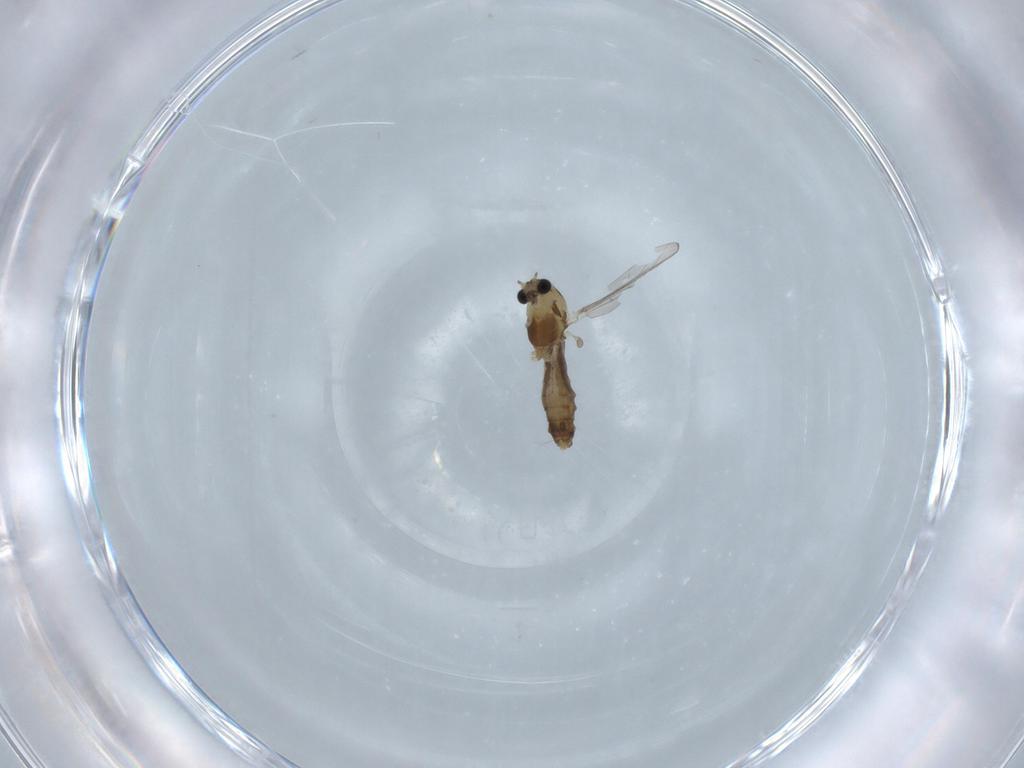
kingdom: Animalia
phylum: Arthropoda
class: Insecta
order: Diptera
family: Chironomidae
